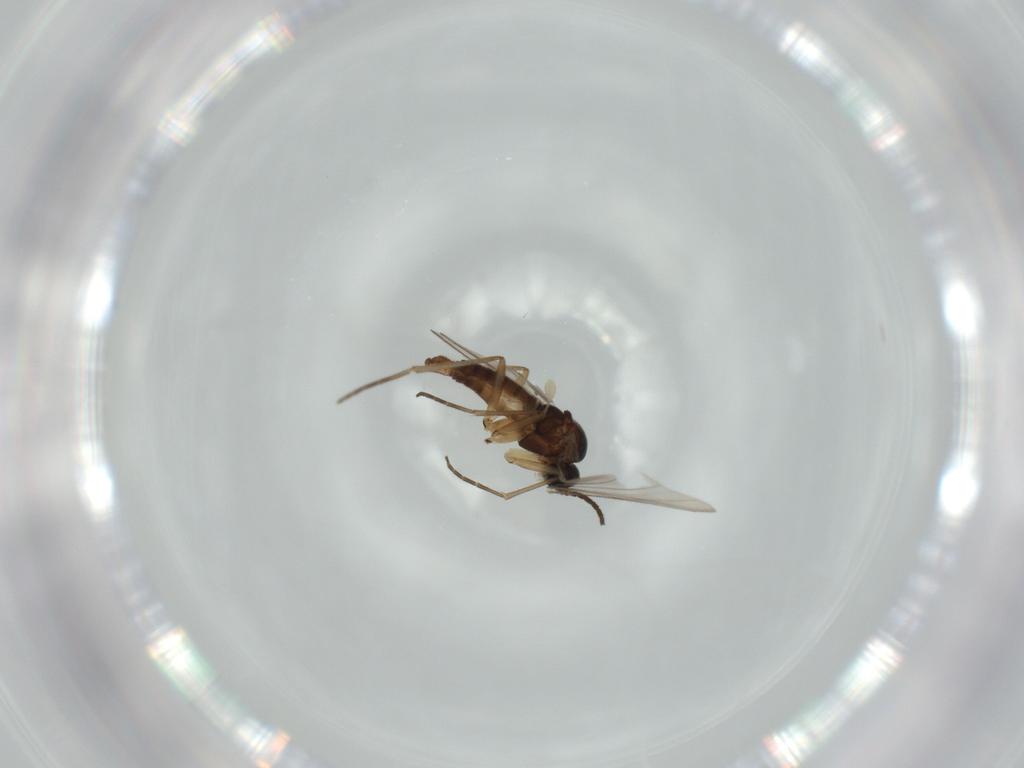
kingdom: Animalia
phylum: Arthropoda
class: Insecta
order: Diptera
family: Sciaridae
